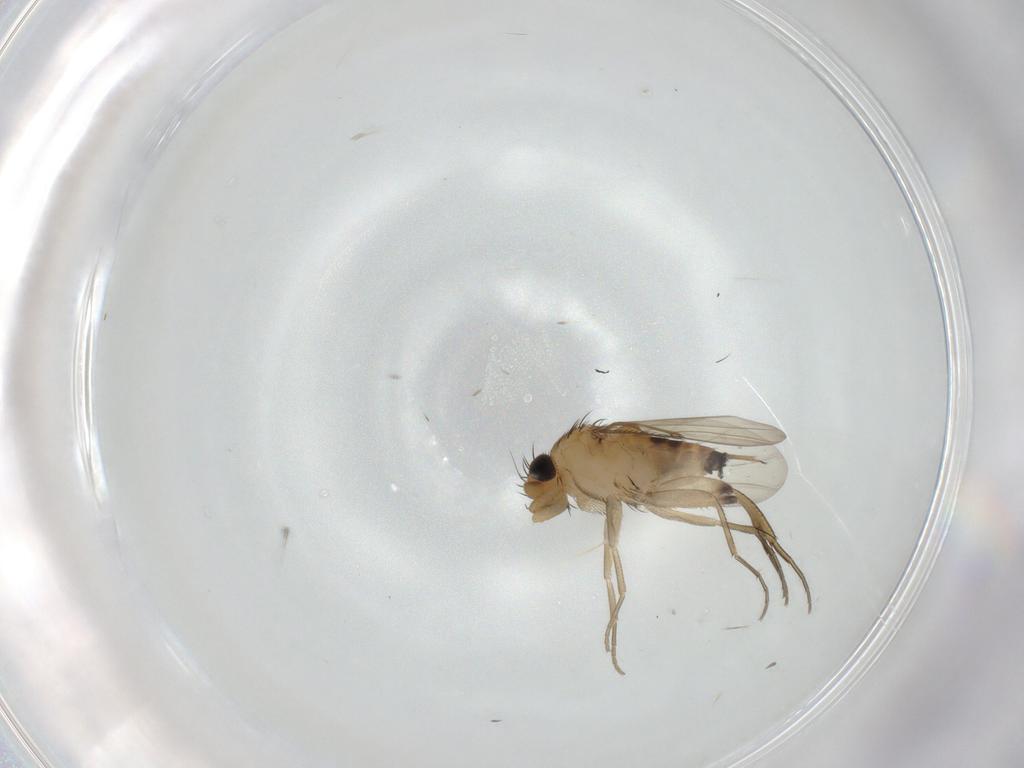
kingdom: Animalia
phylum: Arthropoda
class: Insecta
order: Diptera
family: Phoridae
